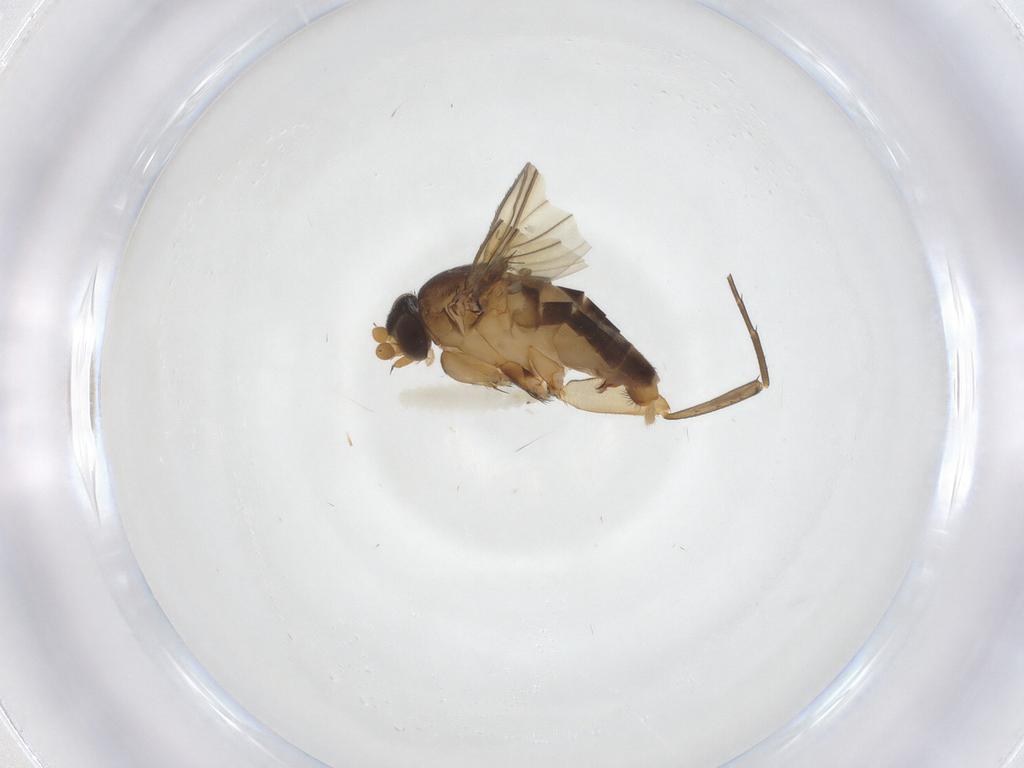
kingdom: Animalia
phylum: Arthropoda
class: Insecta
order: Diptera
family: Phoridae
